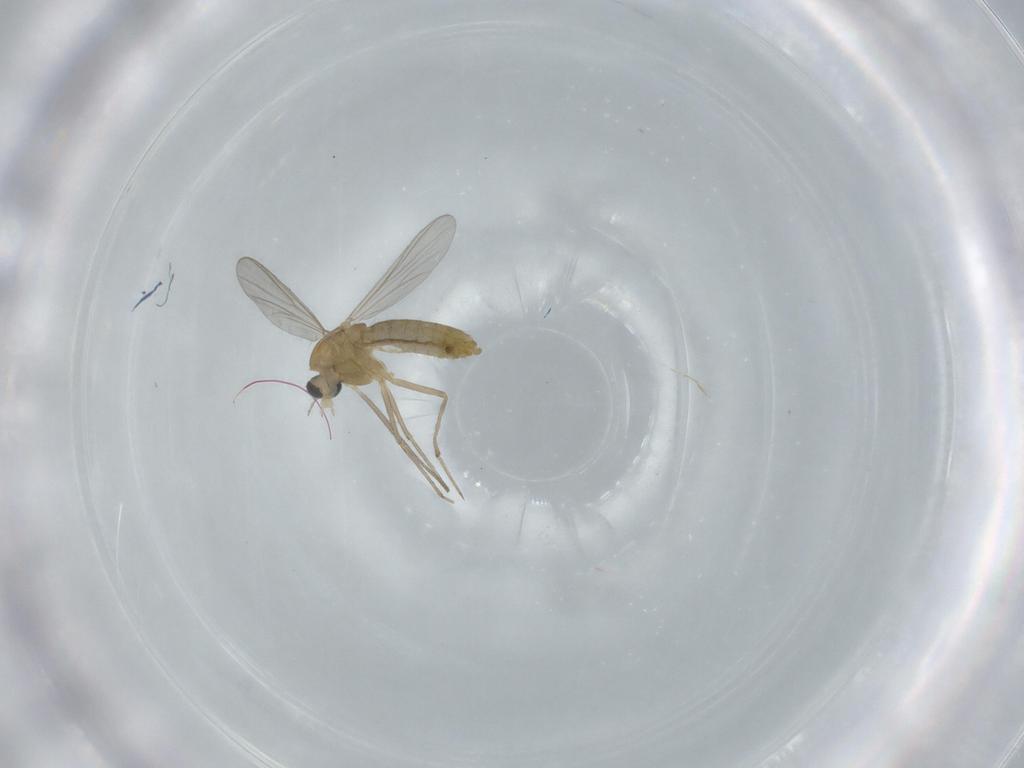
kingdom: Animalia
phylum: Arthropoda
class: Insecta
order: Diptera
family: Chironomidae
